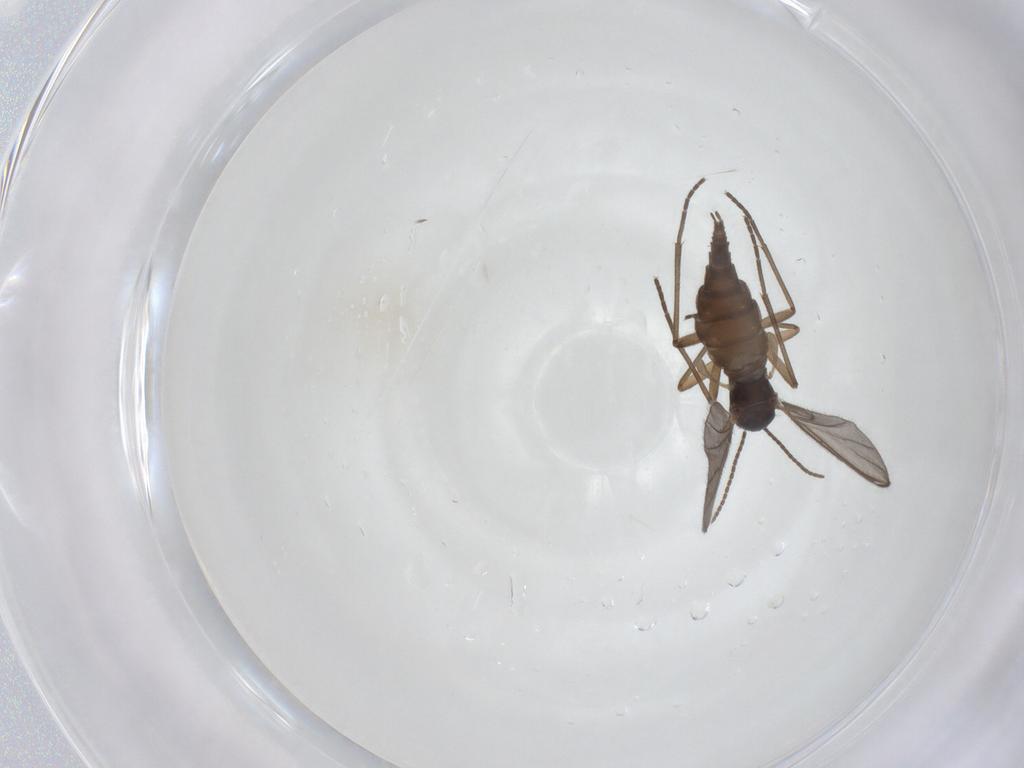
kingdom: Animalia
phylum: Arthropoda
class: Insecta
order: Diptera
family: Sciaridae
